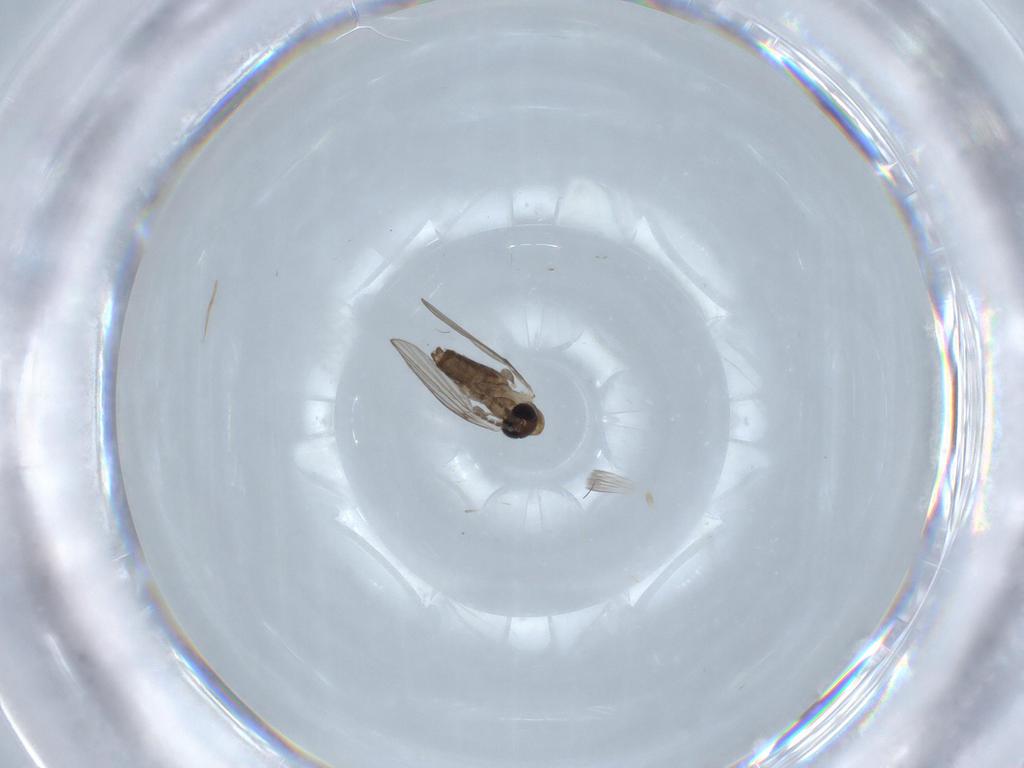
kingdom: Animalia
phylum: Arthropoda
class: Insecta
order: Diptera
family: Psychodidae
